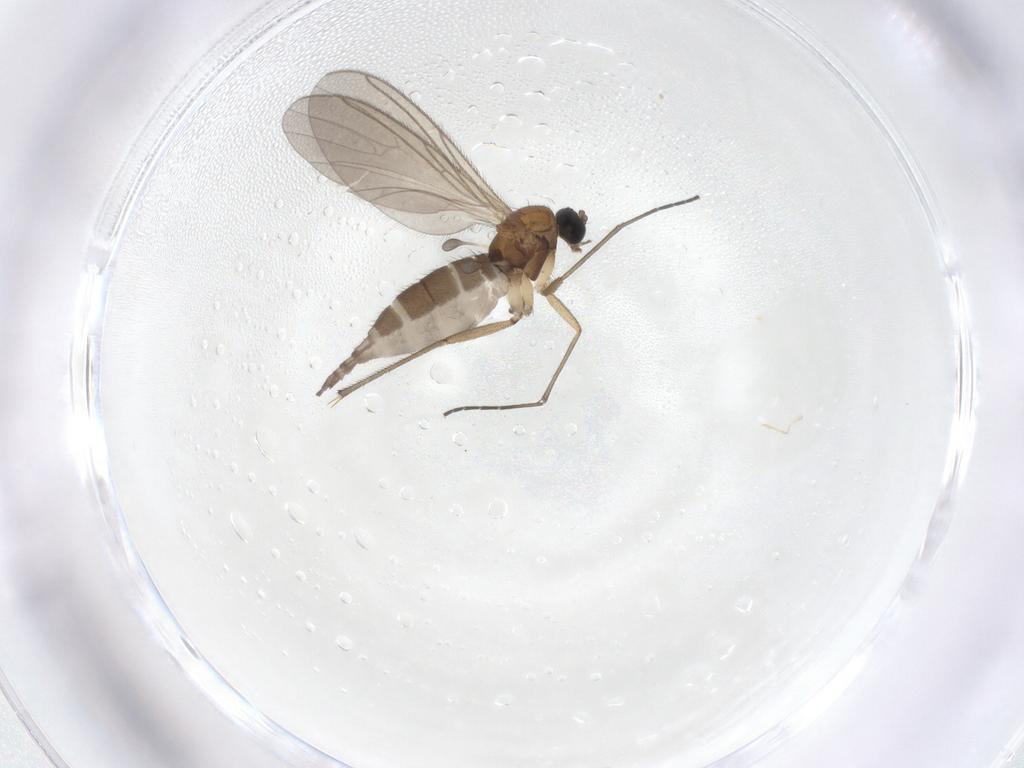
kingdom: Animalia
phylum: Arthropoda
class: Insecta
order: Diptera
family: Sciaridae
